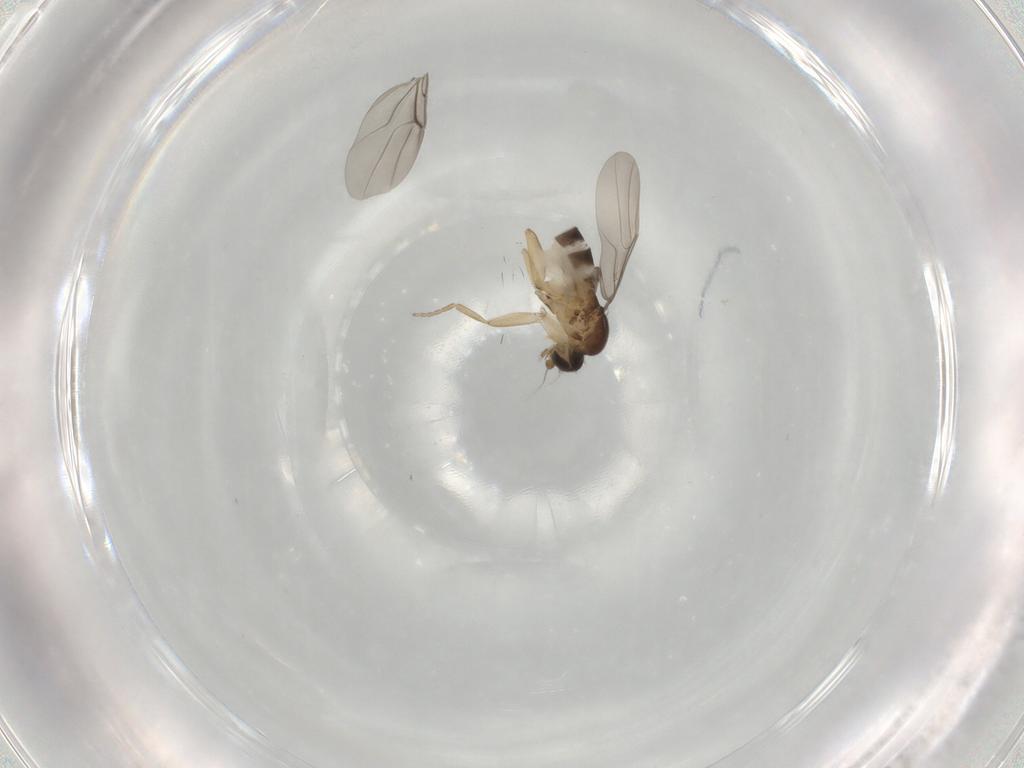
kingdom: Animalia
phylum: Arthropoda
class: Insecta
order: Diptera
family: Phoridae
